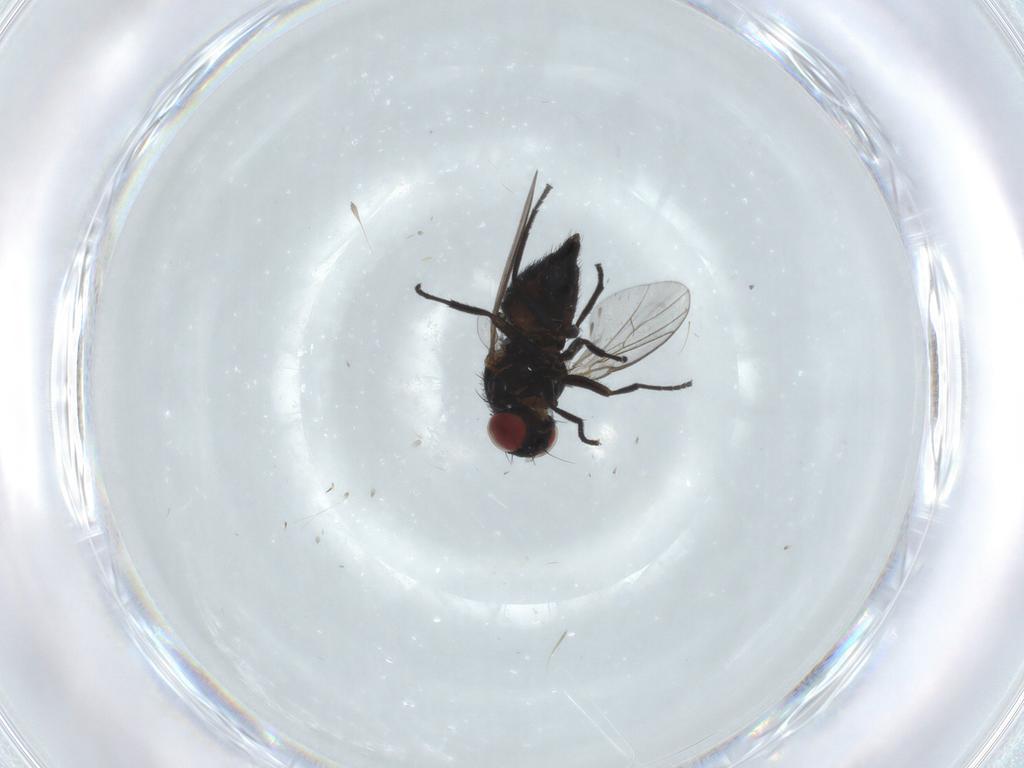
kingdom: Animalia
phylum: Arthropoda
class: Insecta
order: Diptera
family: Agromyzidae
